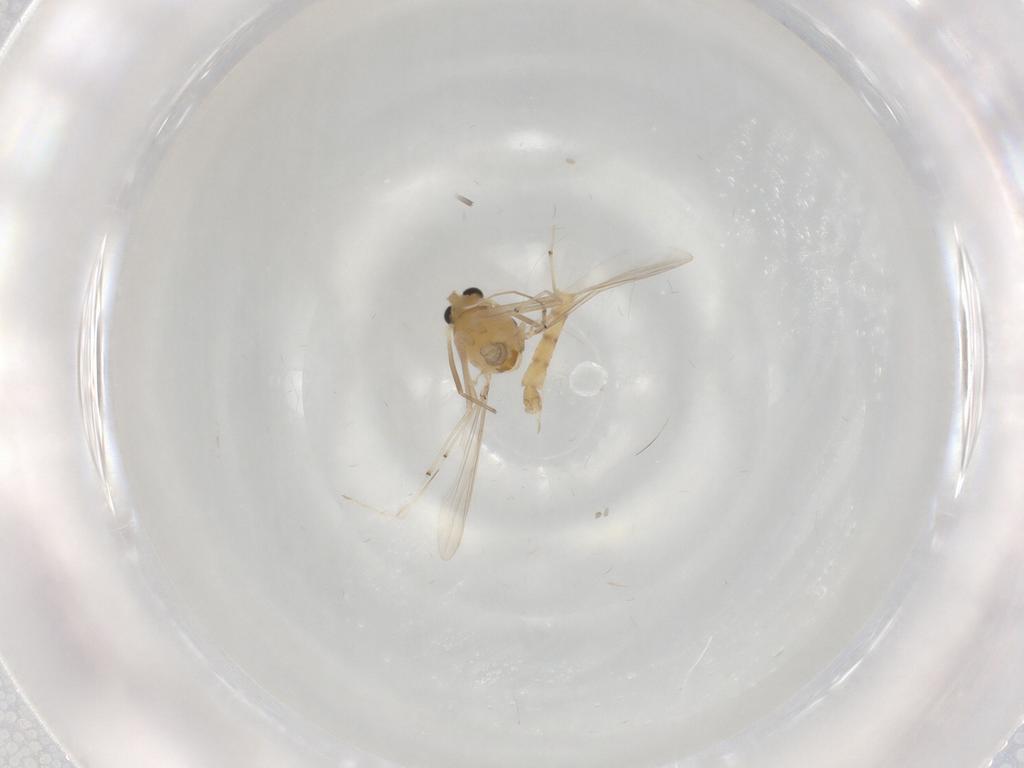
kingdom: Animalia
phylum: Arthropoda
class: Insecta
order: Diptera
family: Chironomidae
